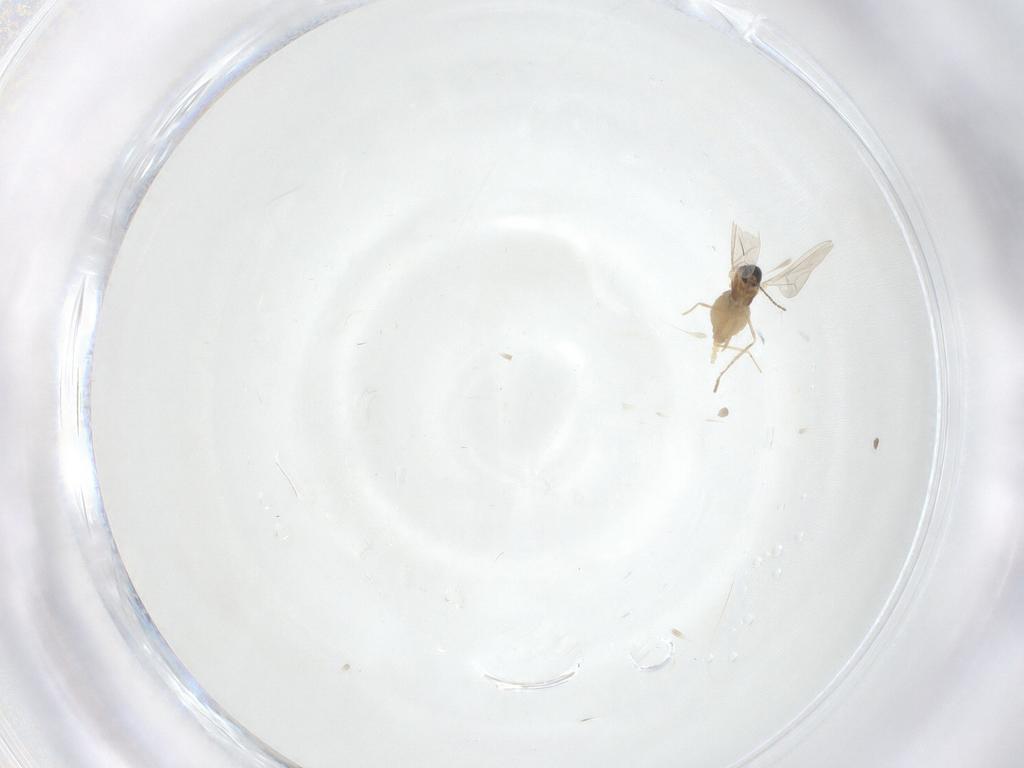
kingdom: Animalia
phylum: Arthropoda
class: Insecta
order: Diptera
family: Cecidomyiidae
